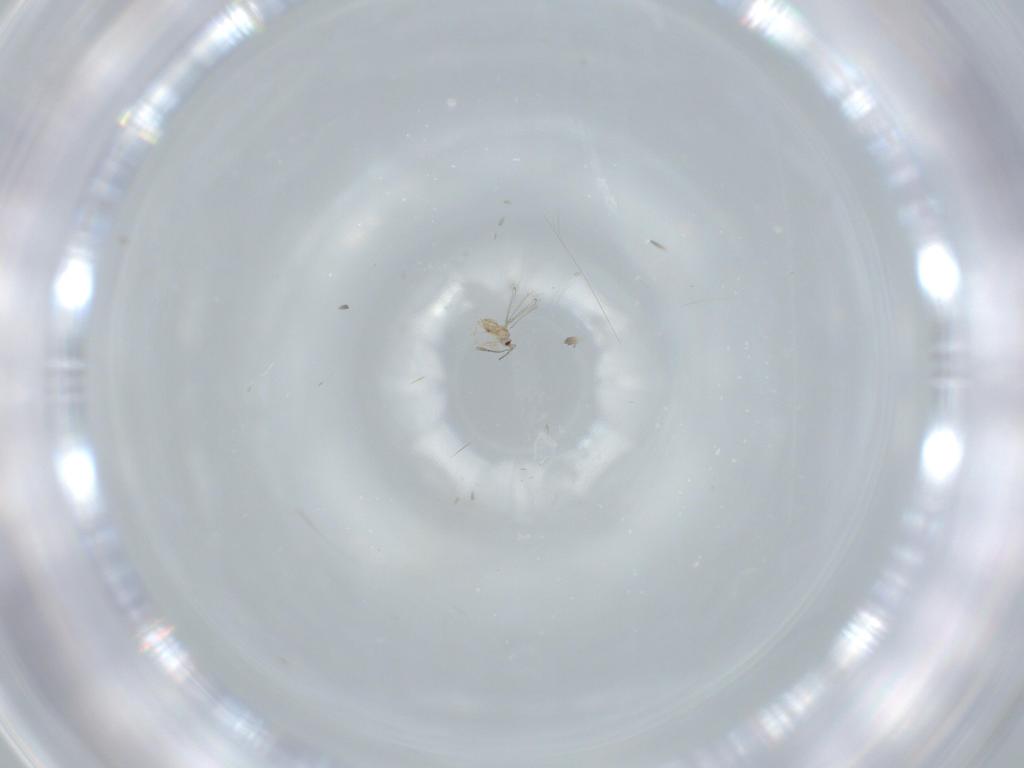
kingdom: Animalia
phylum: Arthropoda
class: Insecta
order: Hymenoptera
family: Mymaridae
